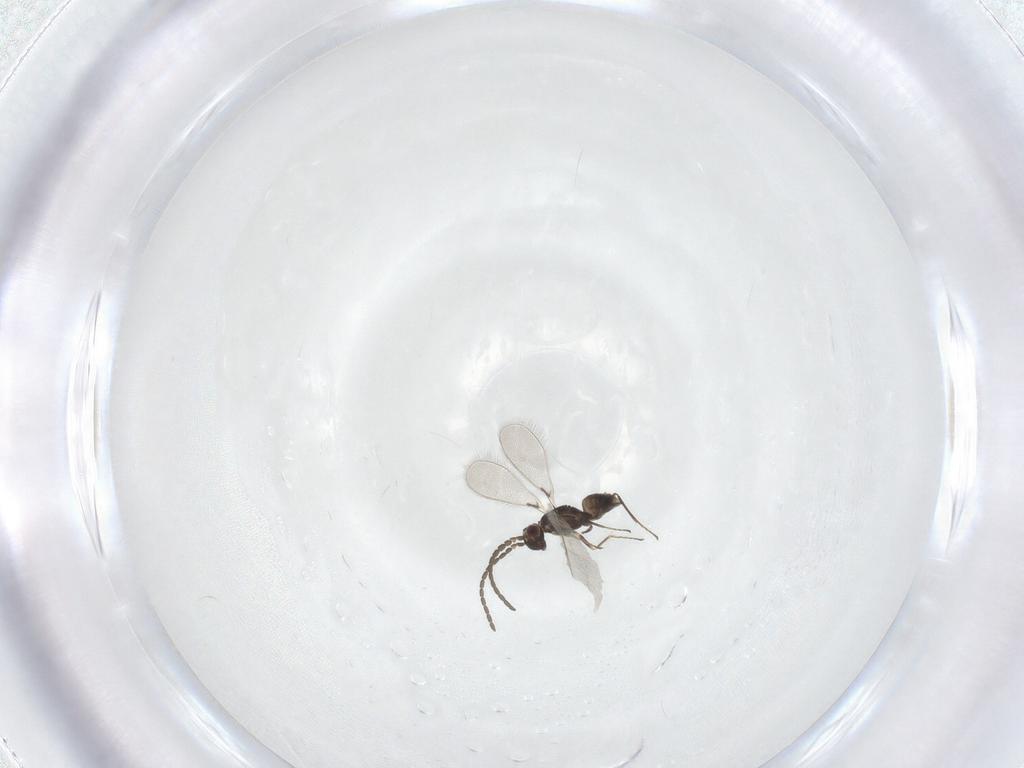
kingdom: Animalia
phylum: Arthropoda
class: Insecta
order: Hymenoptera
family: Mymaridae
